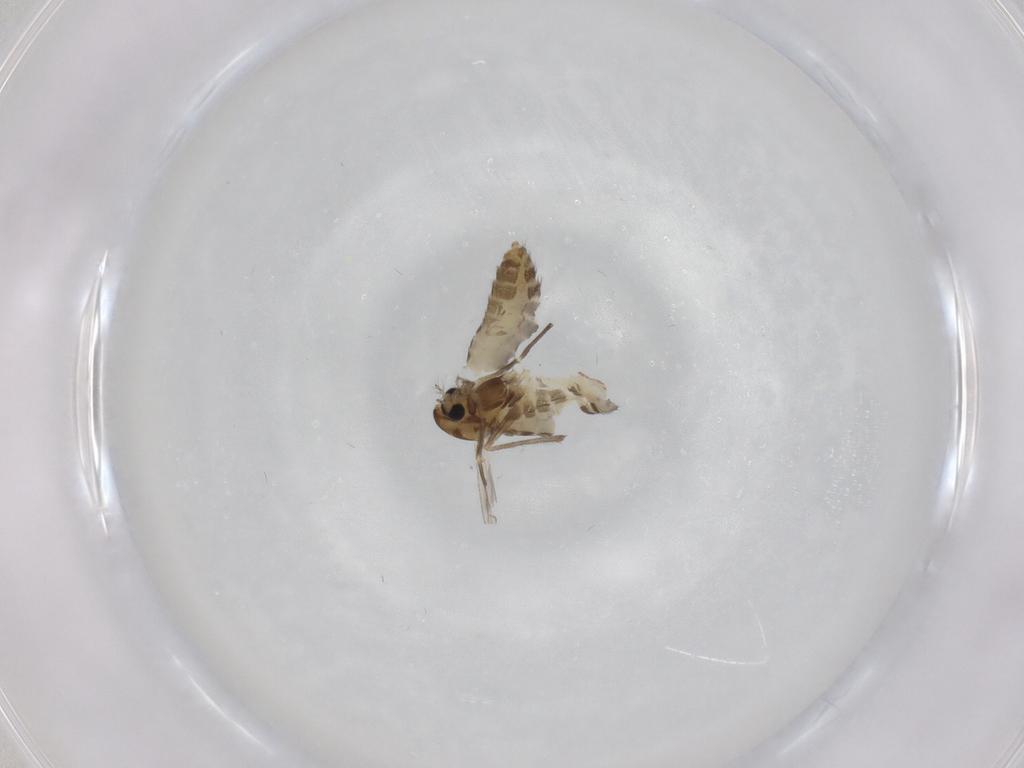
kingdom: Animalia
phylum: Arthropoda
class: Insecta
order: Diptera
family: Chironomidae
